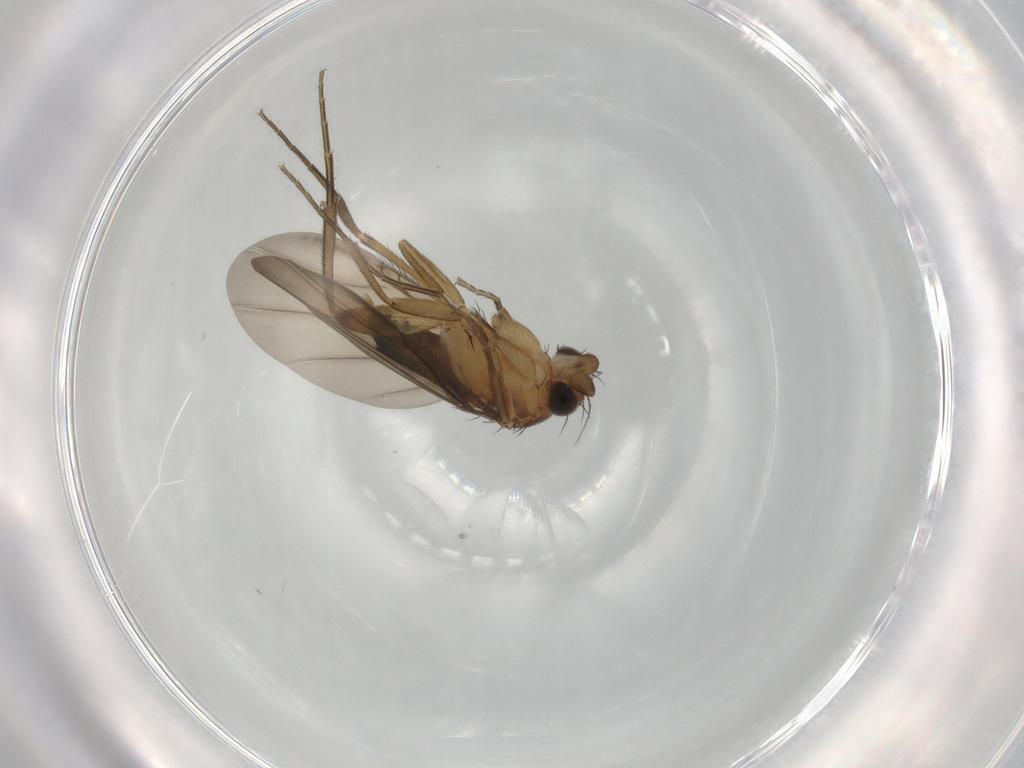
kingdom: Animalia
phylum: Arthropoda
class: Insecta
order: Diptera
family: Phoridae
